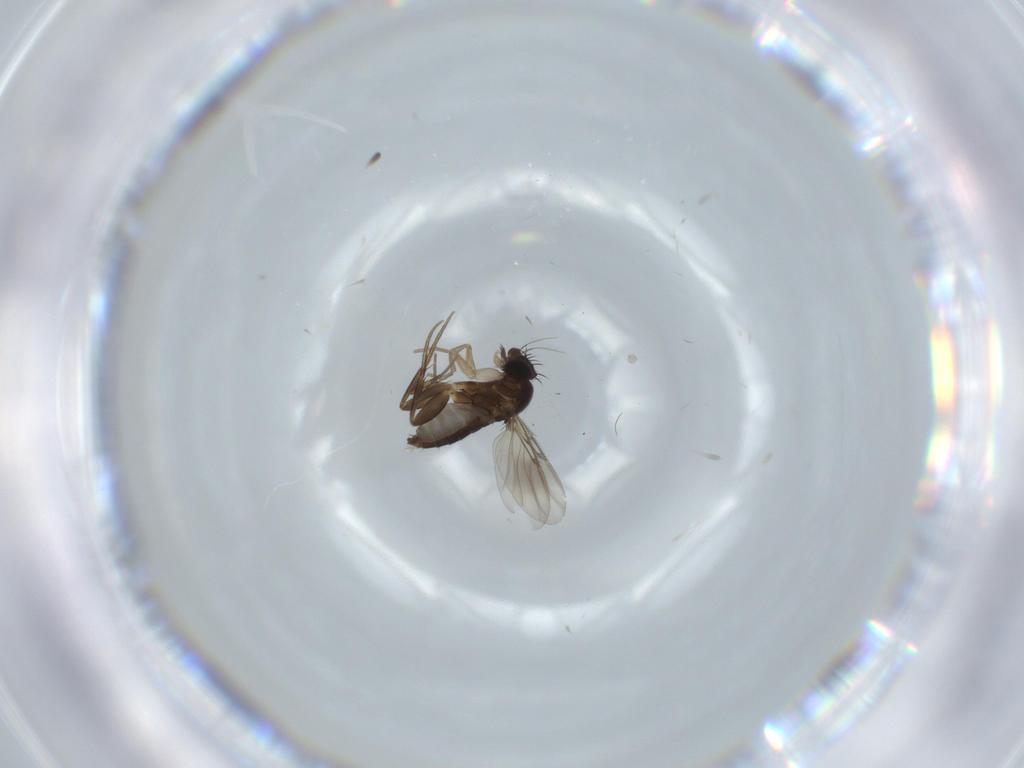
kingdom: Animalia
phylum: Arthropoda
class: Insecta
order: Diptera
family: Phoridae
